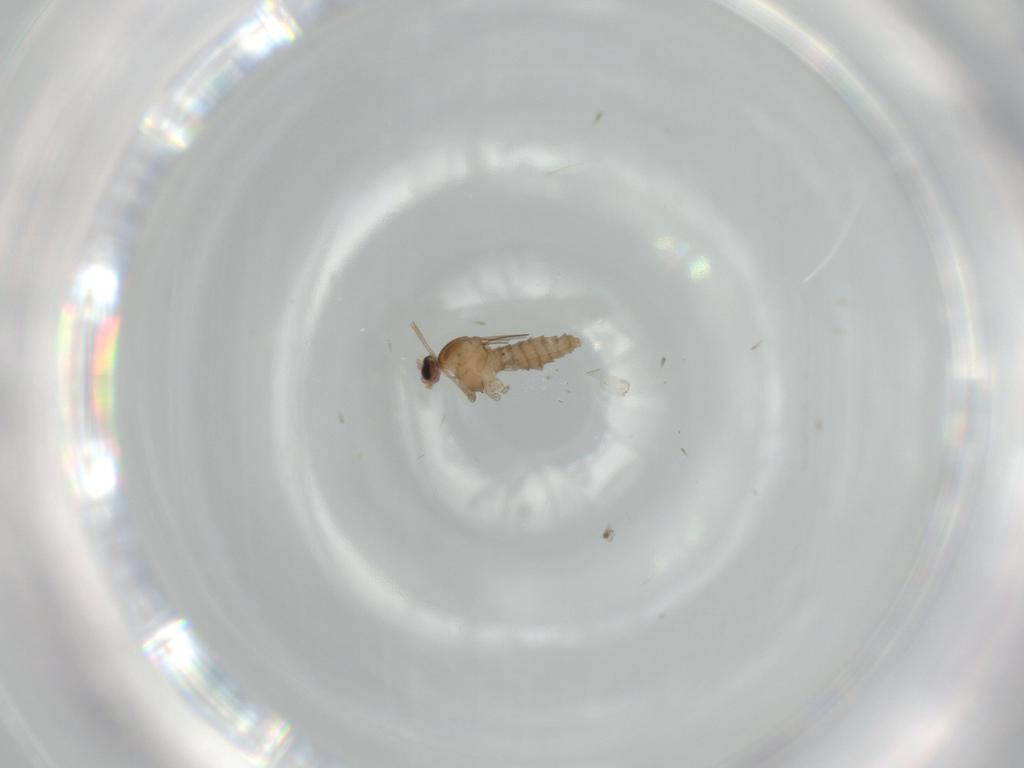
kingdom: Animalia
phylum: Arthropoda
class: Insecta
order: Diptera
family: Cecidomyiidae
